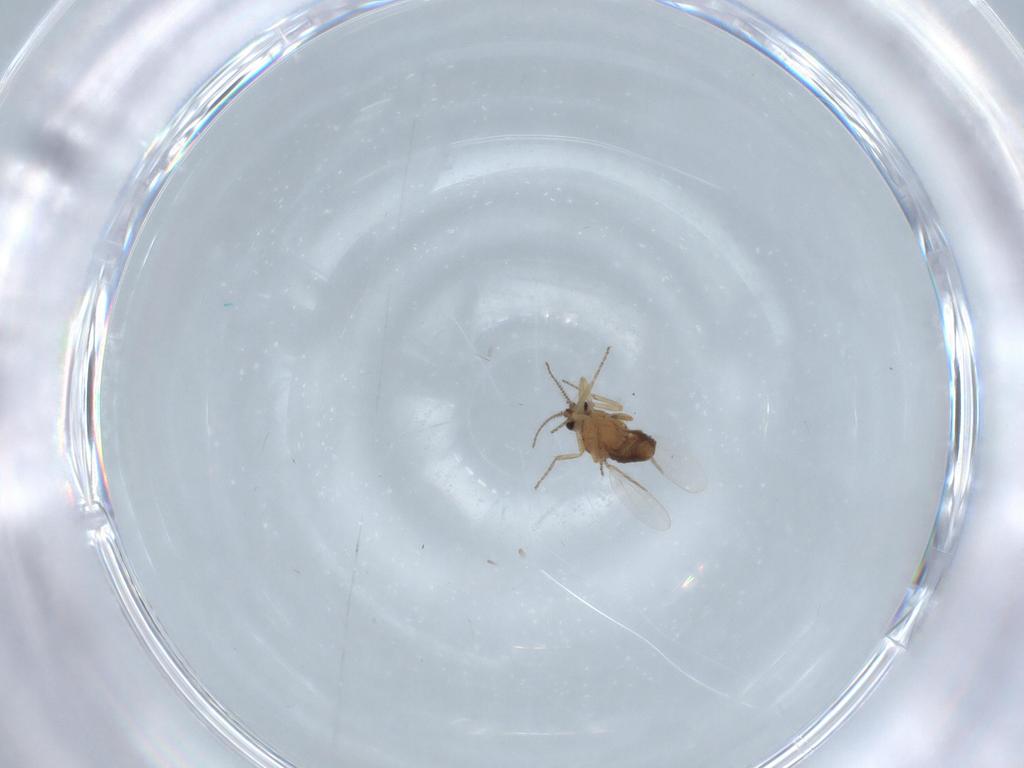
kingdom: Animalia
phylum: Arthropoda
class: Insecta
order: Diptera
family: Ceratopogonidae
